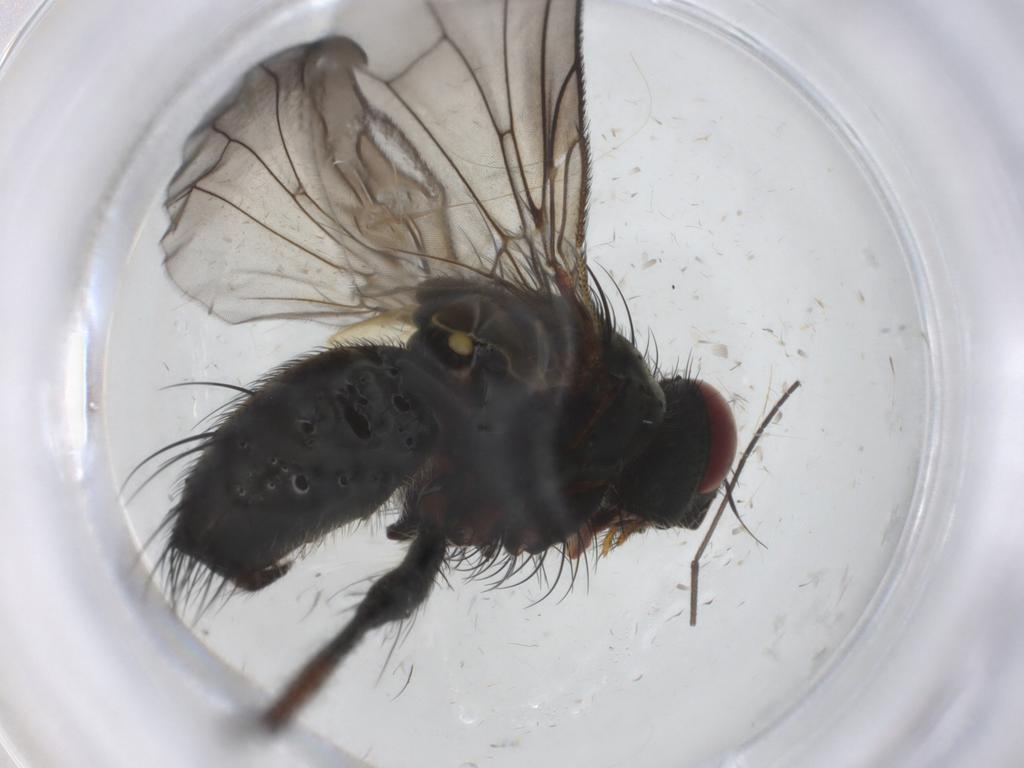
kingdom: Animalia
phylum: Arthropoda
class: Insecta
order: Diptera
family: Tachinidae
